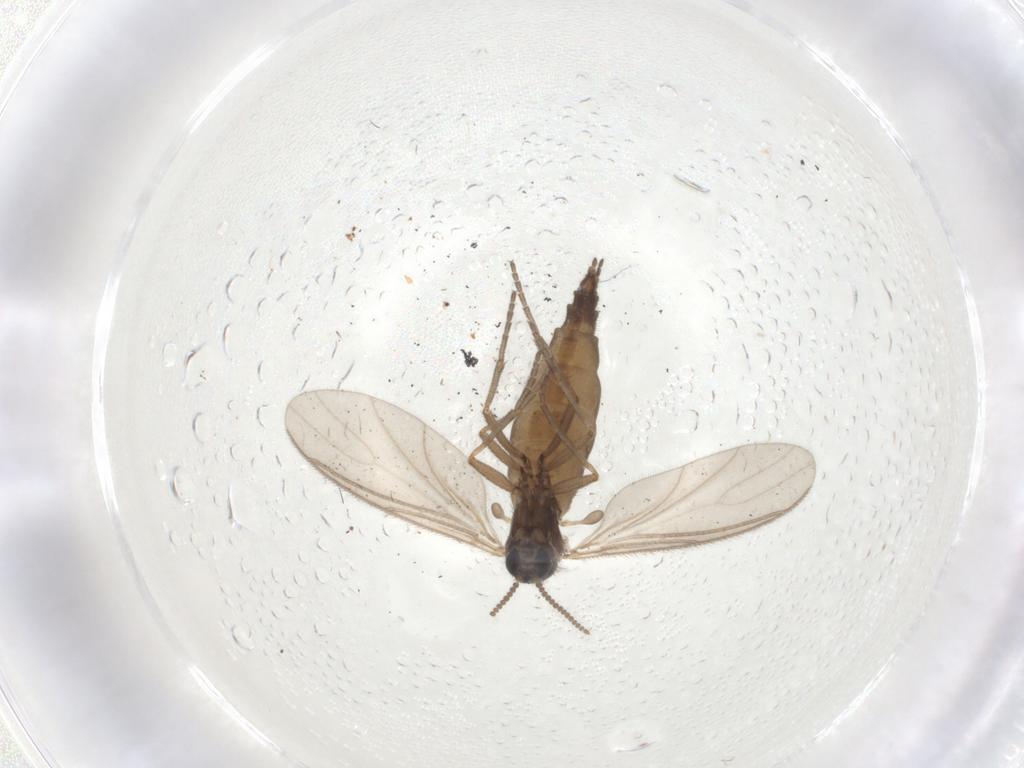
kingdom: Animalia
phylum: Arthropoda
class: Insecta
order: Diptera
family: Sciaridae
